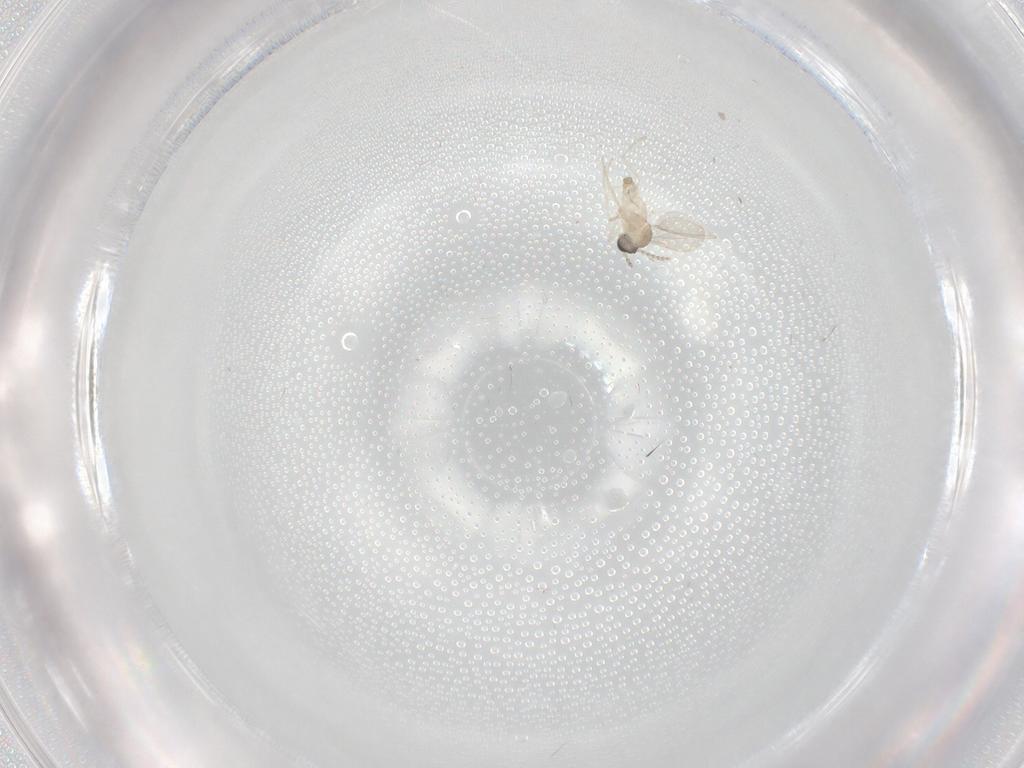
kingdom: Animalia
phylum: Arthropoda
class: Insecta
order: Diptera
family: Cecidomyiidae
